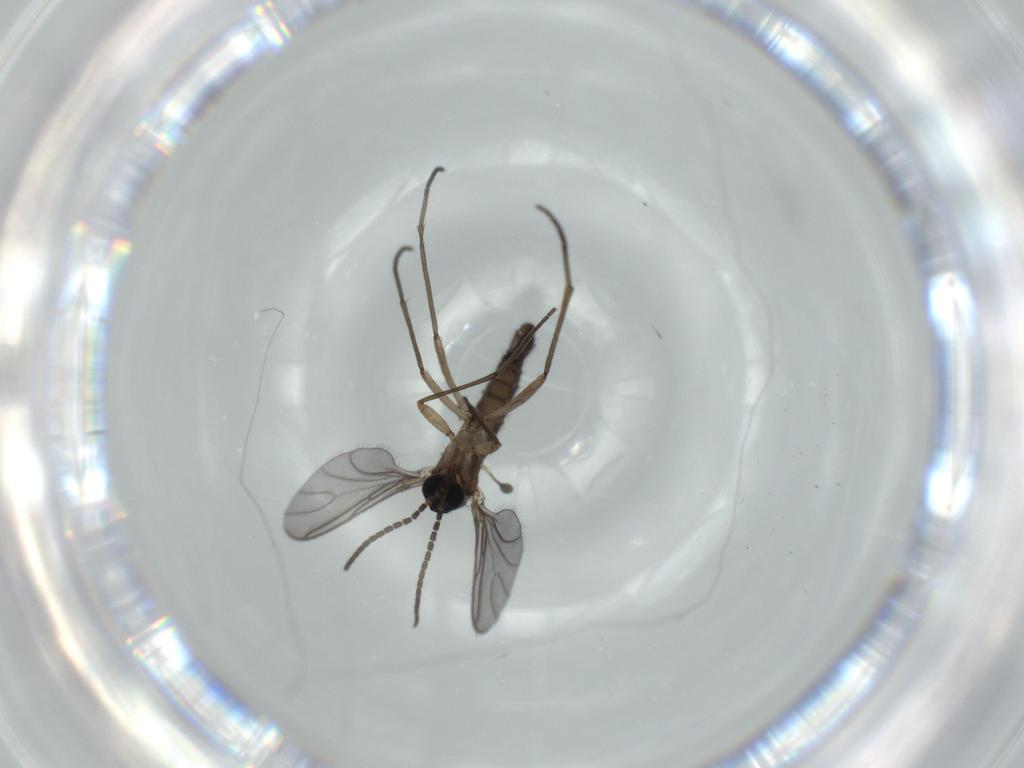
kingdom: Animalia
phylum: Arthropoda
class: Insecta
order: Diptera
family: Sciaridae
